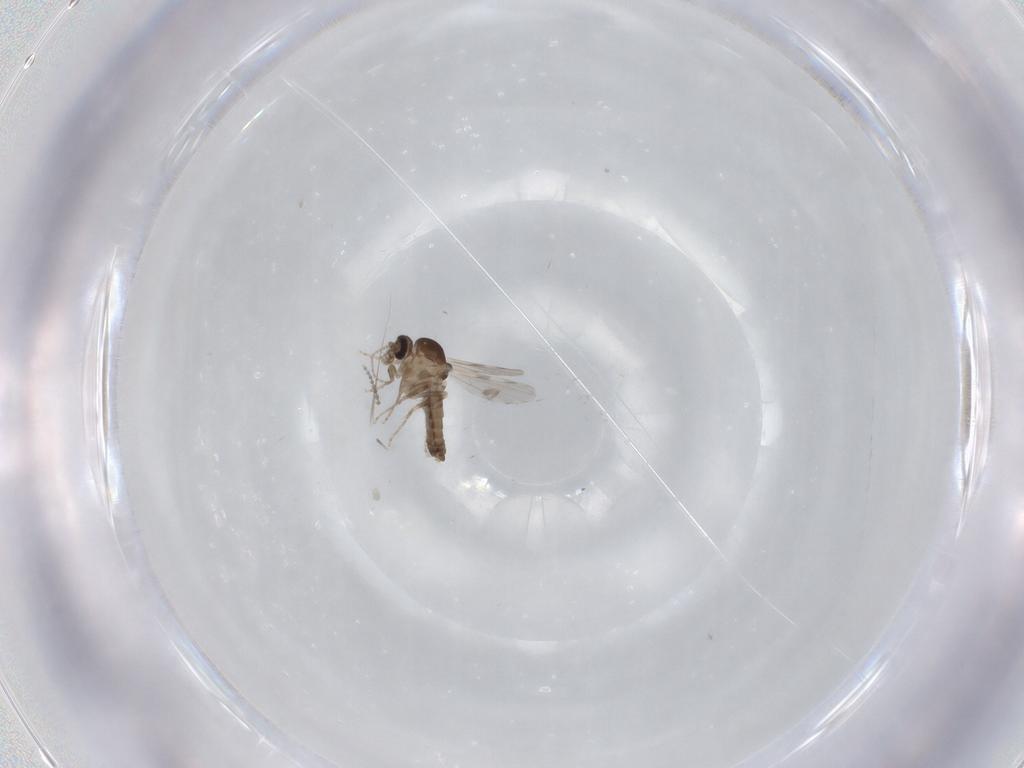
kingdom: Animalia
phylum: Arthropoda
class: Insecta
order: Diptera
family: Ceratopogonidae
